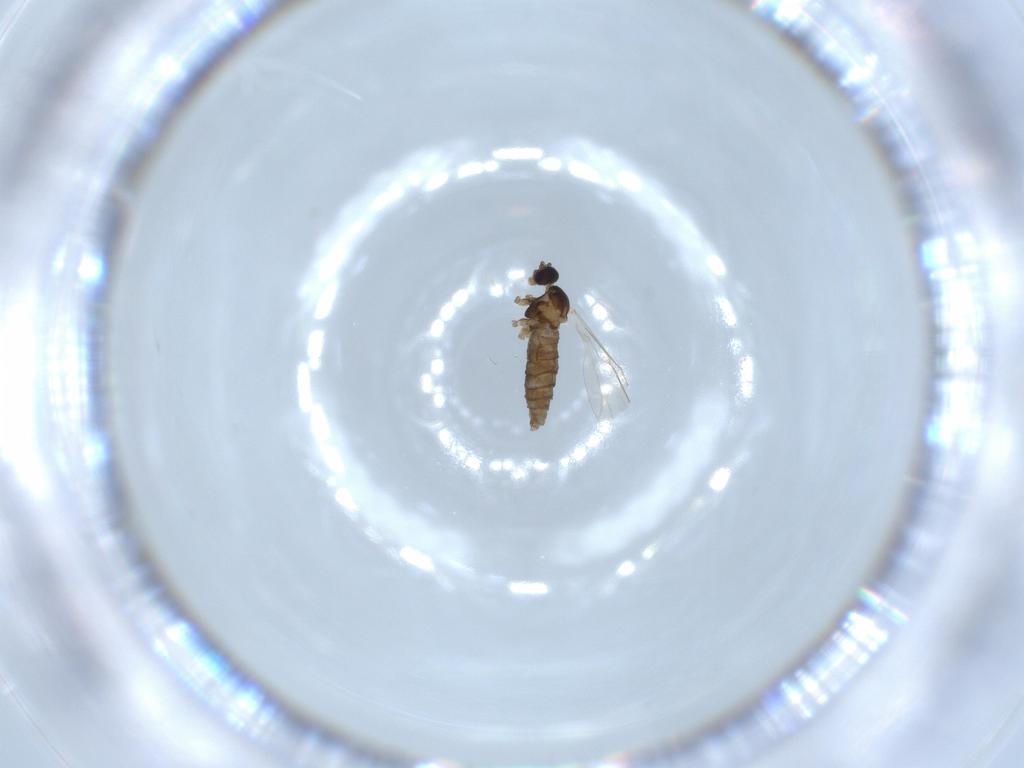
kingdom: Animalia
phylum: Arthropoda
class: Insecta
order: Diptera
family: Cecidomyiidae
